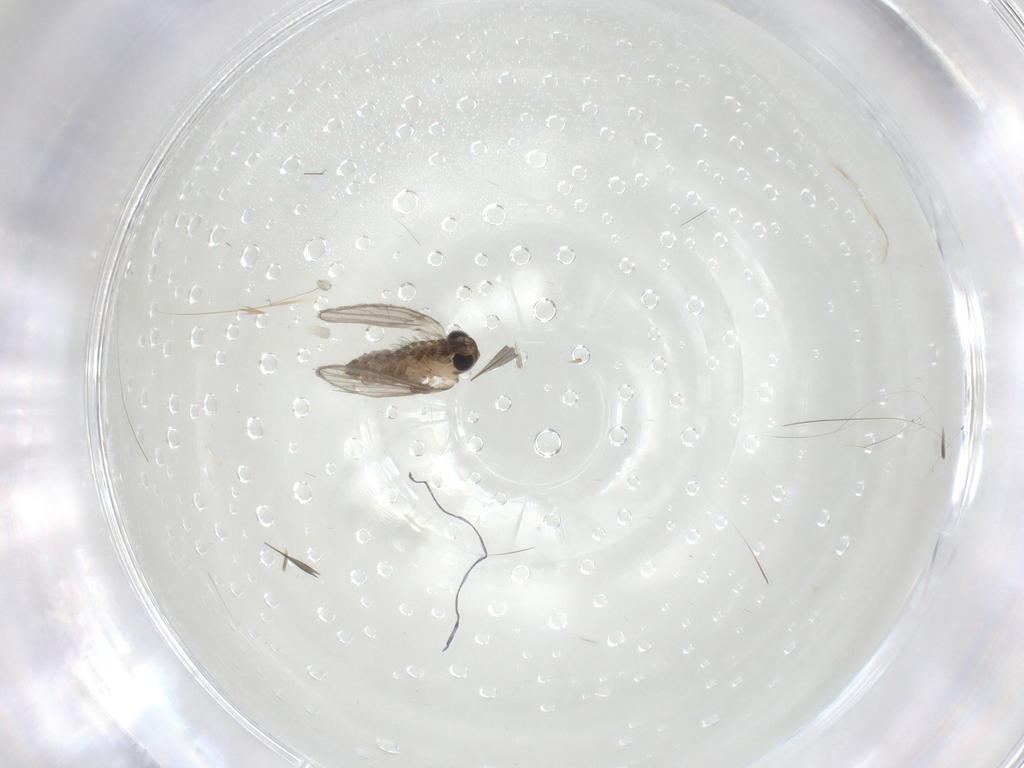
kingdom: Animalia
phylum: Arthropoda
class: Insecta
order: Diptera
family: Psychodidae
